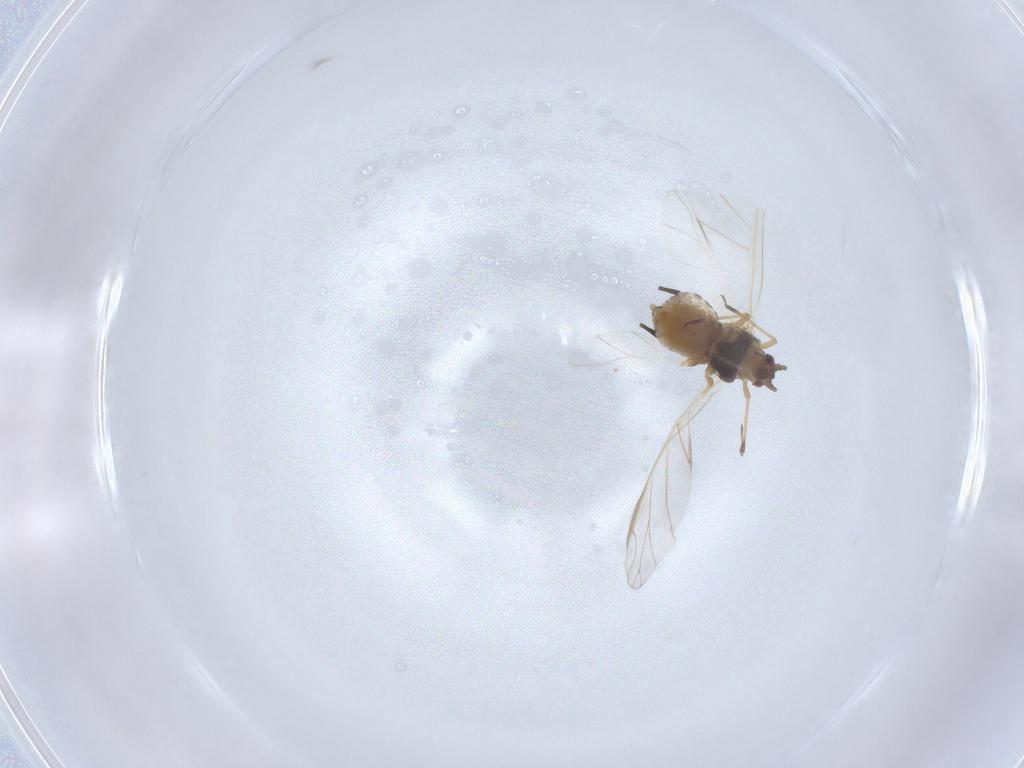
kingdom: Animalia
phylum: Arthropoda
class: Insecta
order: Hemiptera
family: Aphididae
